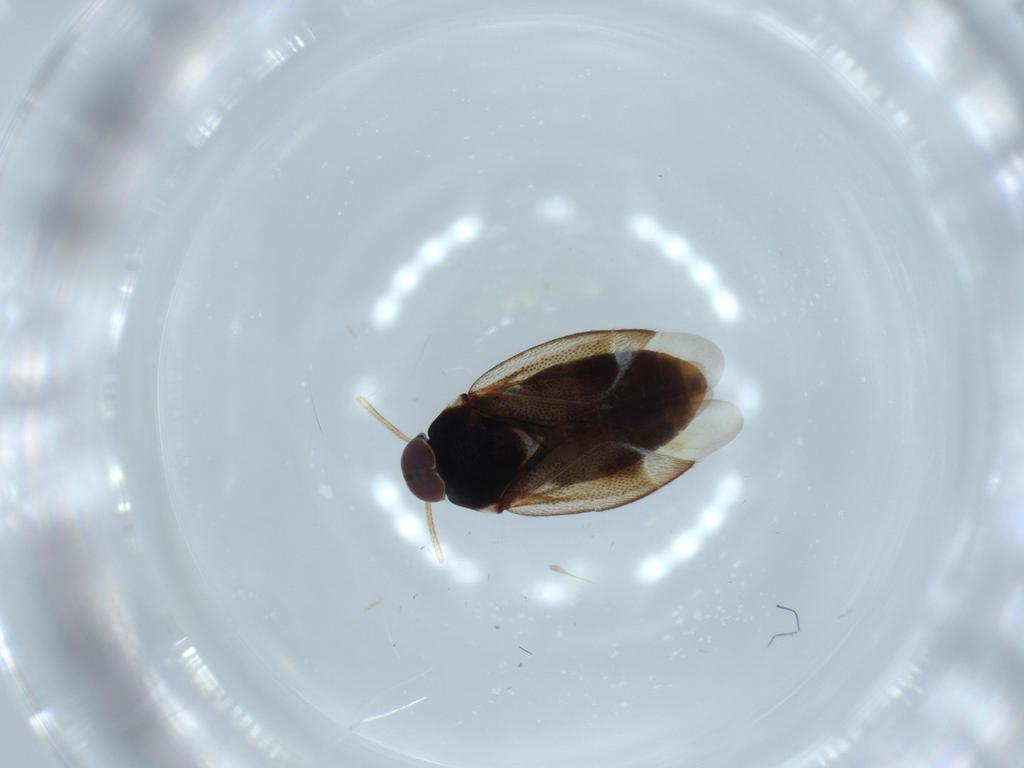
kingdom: Animalia
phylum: Arthropoda
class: Insecta
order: Hemiptera
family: Miridae
